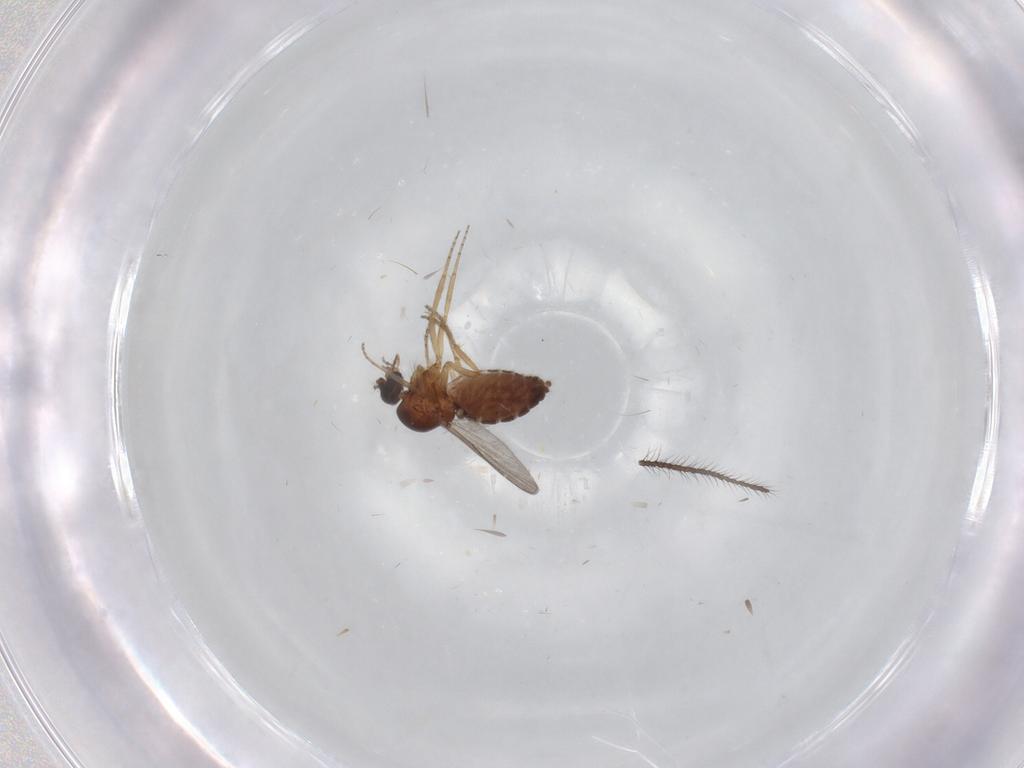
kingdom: Animalia
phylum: Arthropoda
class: Insecta
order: Diptera
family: Ceratopogonidae
